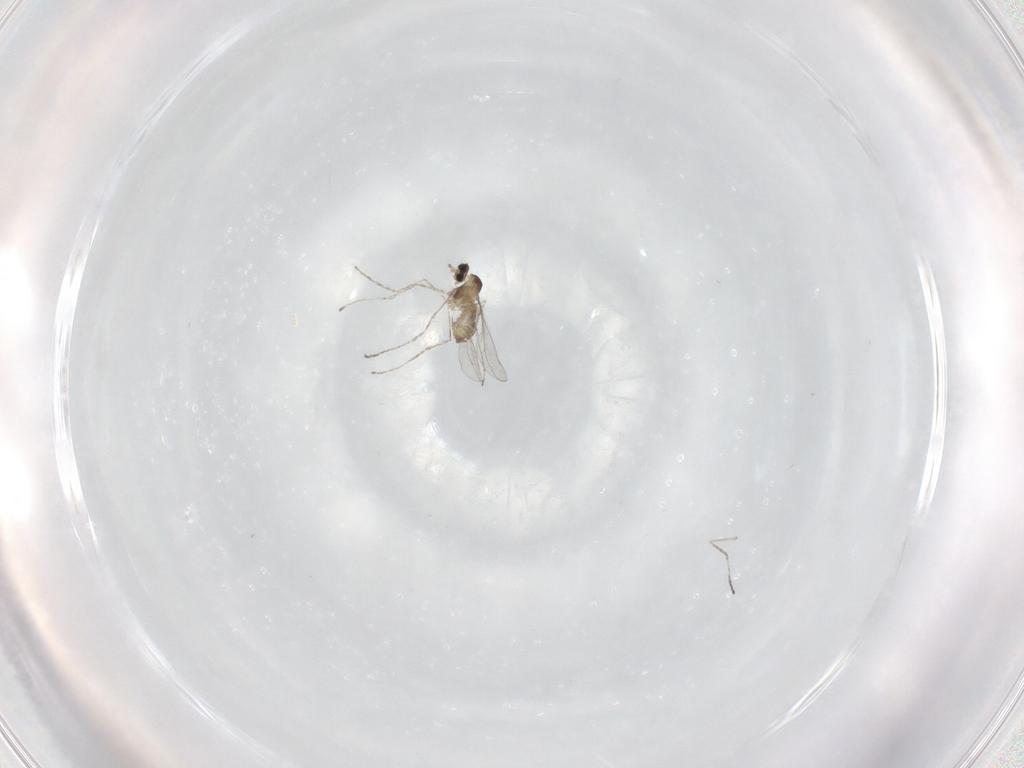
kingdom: Animalia
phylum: Arthropoda
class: Insecta
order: Diptera
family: Cecidomyiidae
